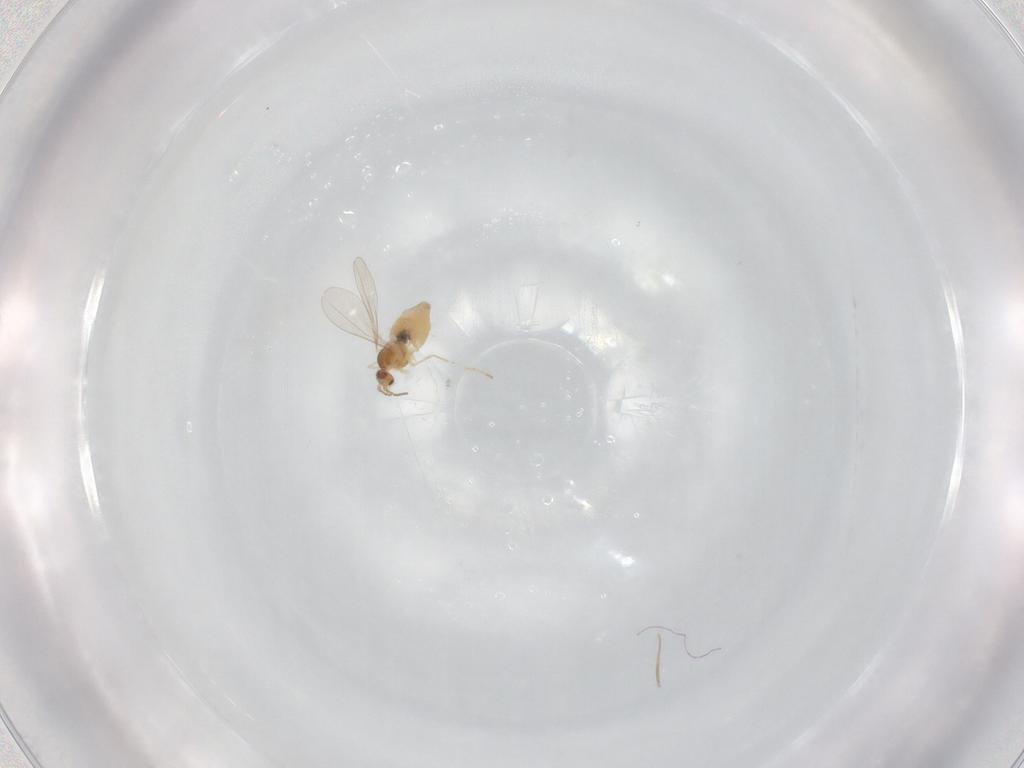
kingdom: Animalia
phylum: Arthropoda
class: Insecta
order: Diptera
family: Cecidomyiidae
